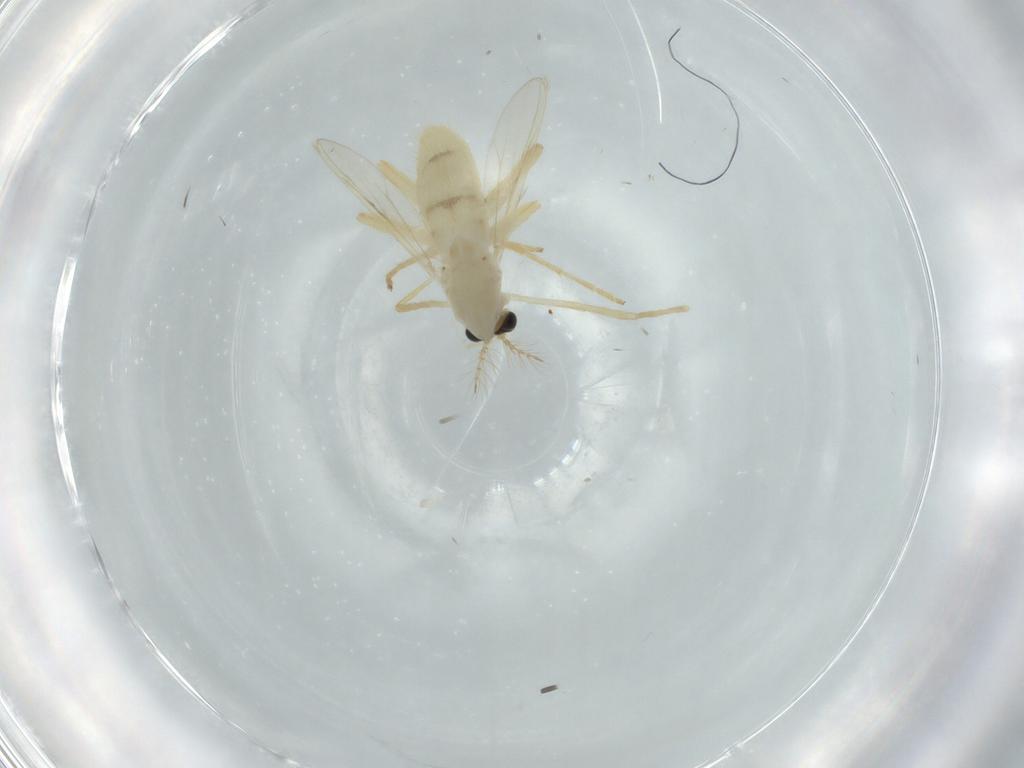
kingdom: Animalia
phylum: Arthropoda
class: Insecta
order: Diptera
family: Chironomidae
